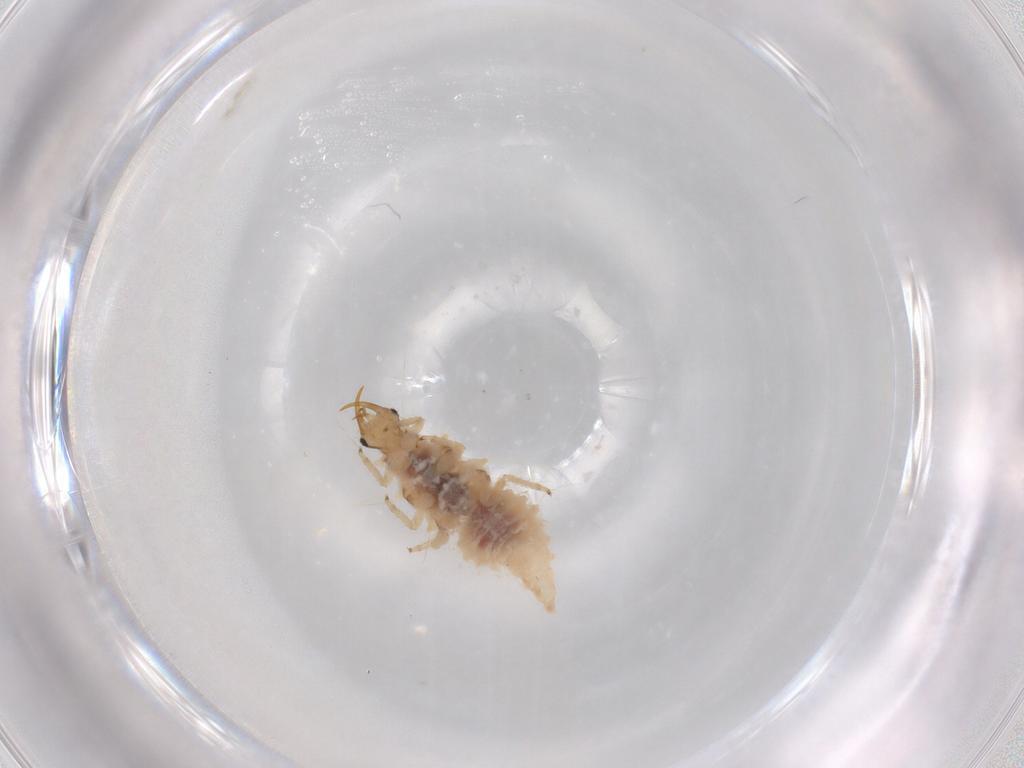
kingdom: Animalia
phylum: Arthropoda
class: Insecta
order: Neuroptera
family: Chrysopidae
